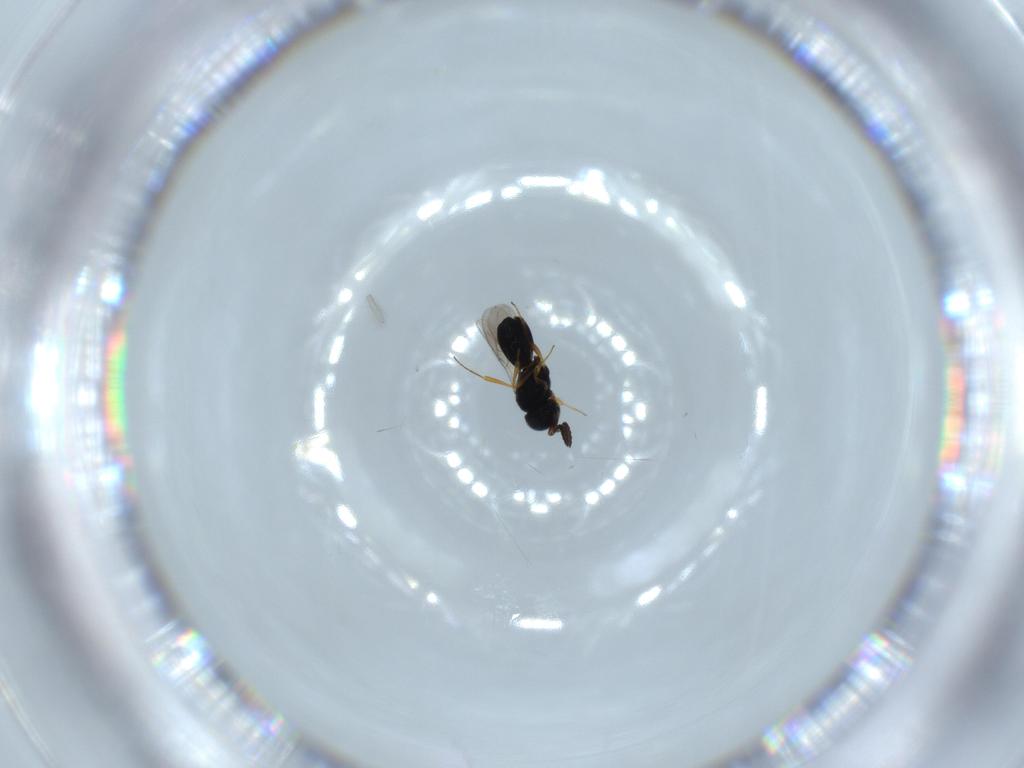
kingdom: Animalia
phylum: Arthropoda
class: Insecta
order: Hymenoptera
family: Scelionidae
